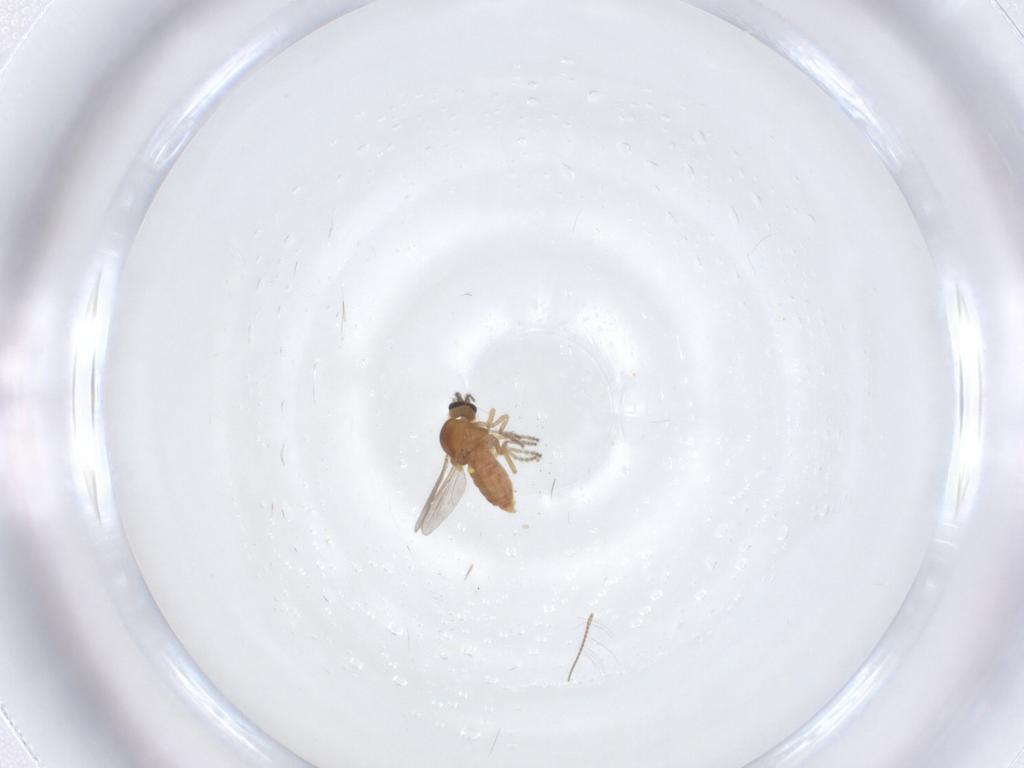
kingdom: Animalia
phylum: Arthropoda
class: Insecta
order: Diptera
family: Ceratopogonidae
